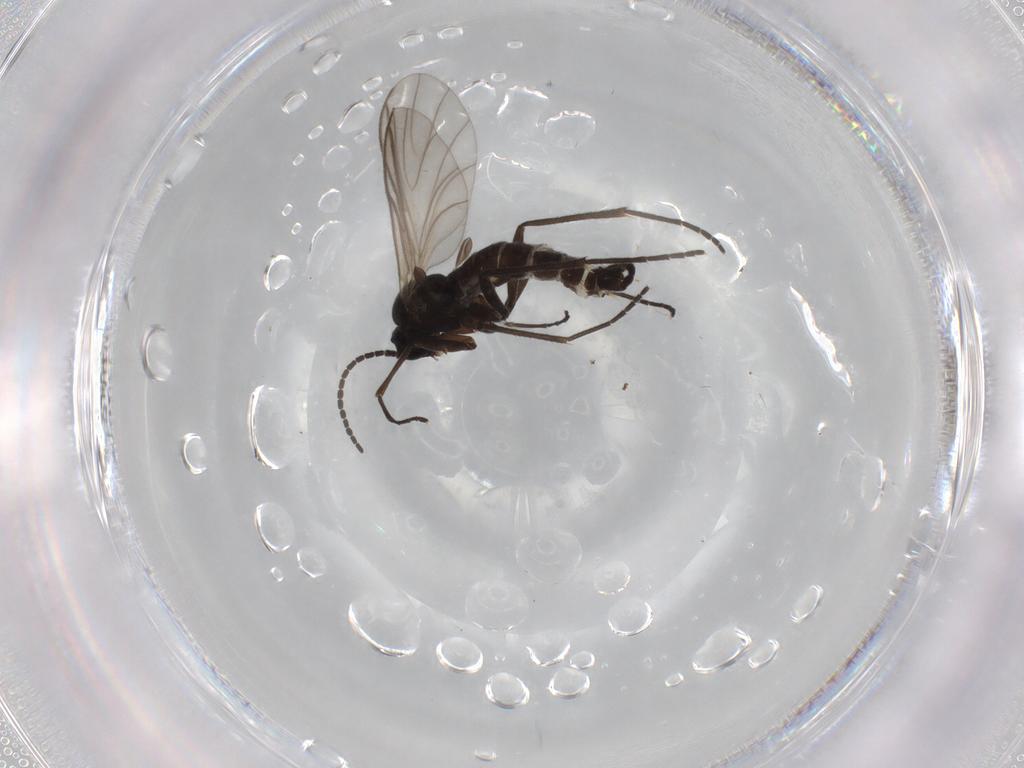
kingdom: Animalia
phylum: Arthropoda
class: Insecta
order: Diptera
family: Sciaridae
